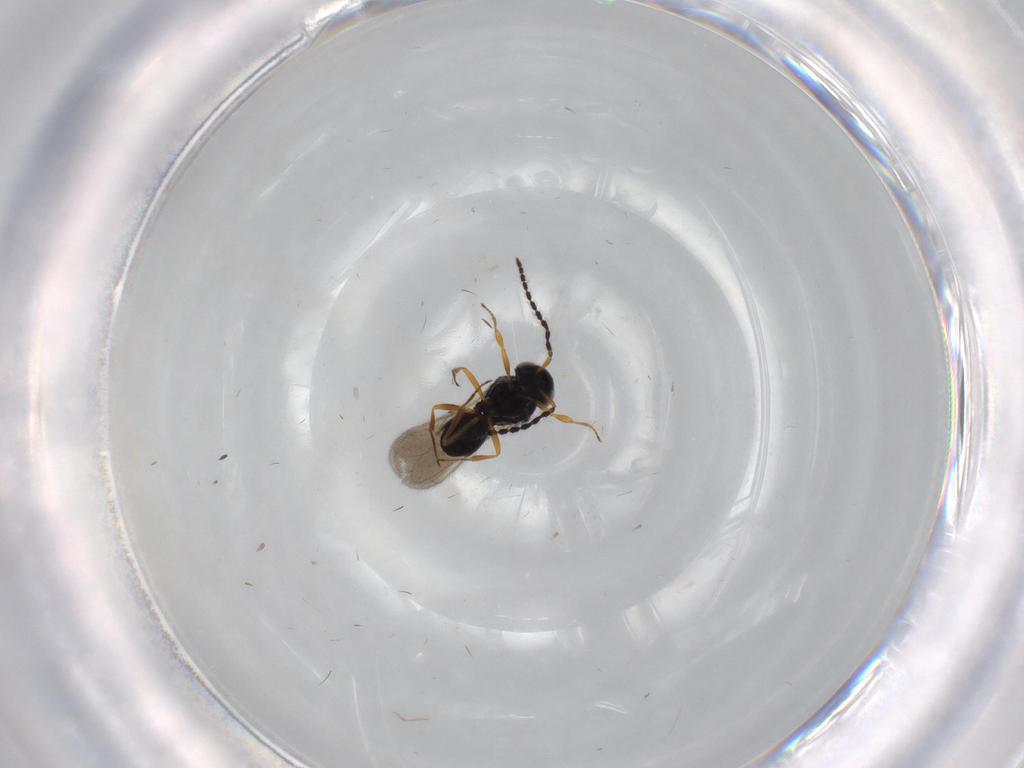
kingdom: Animalia
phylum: Arthropoda
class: Insecta
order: Hymenoptera
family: Scelionidae
